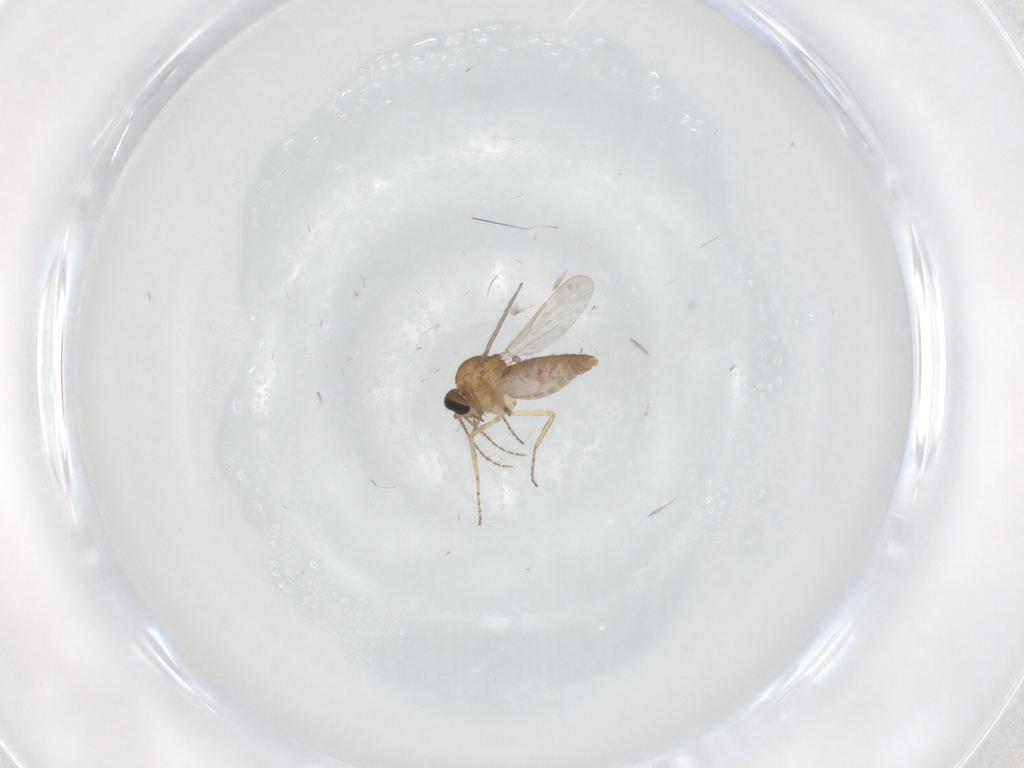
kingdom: Animalia
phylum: Arthropoda
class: Insecta
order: Diptera
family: Ceratopogonidae
